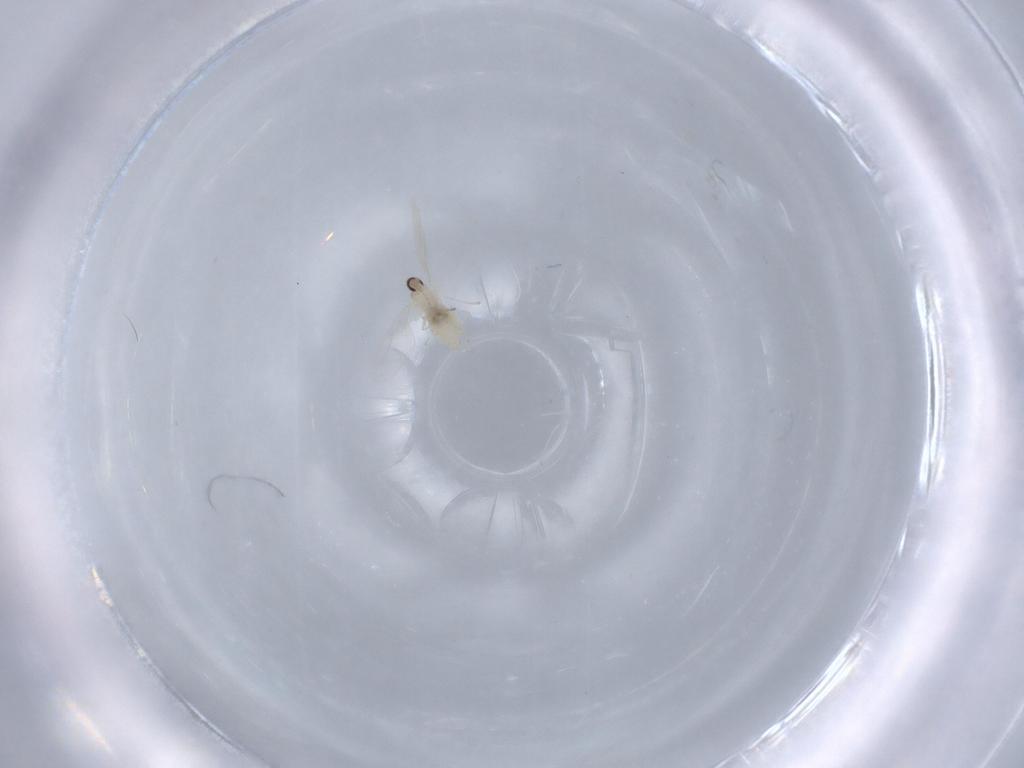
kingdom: Animalia
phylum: Arthropoda
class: Insecta
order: Diptera
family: Cecidomyiidae
